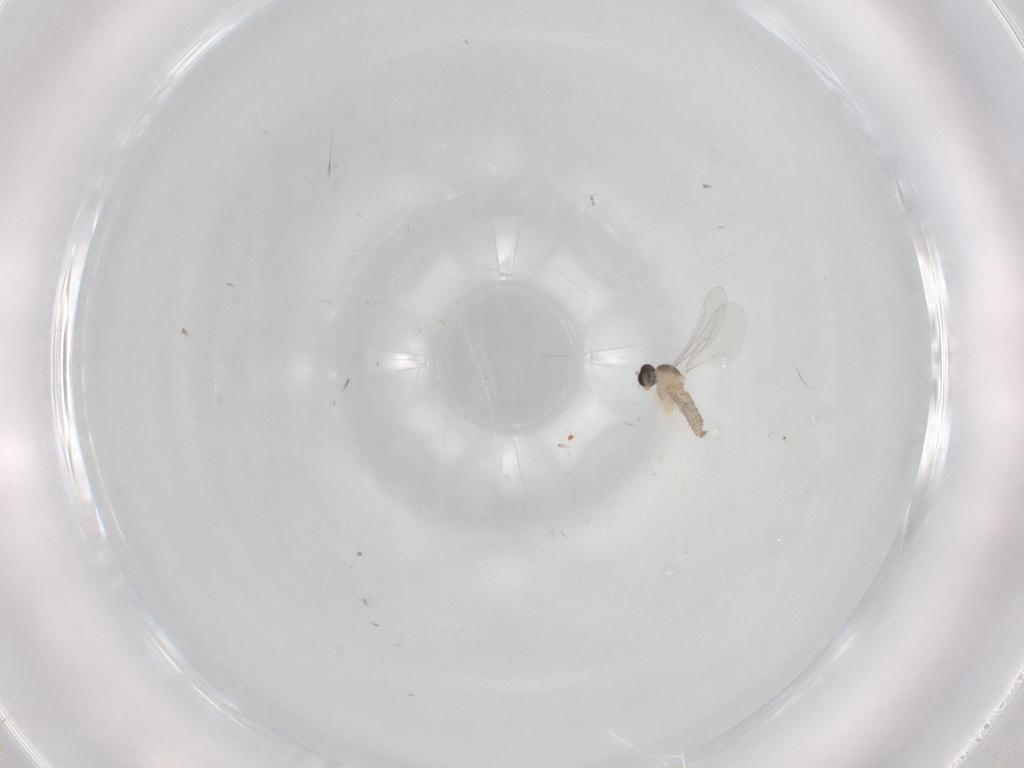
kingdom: Animalia
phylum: Arthropoda
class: Insecta
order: Diptera
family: Cecidomyiidae
